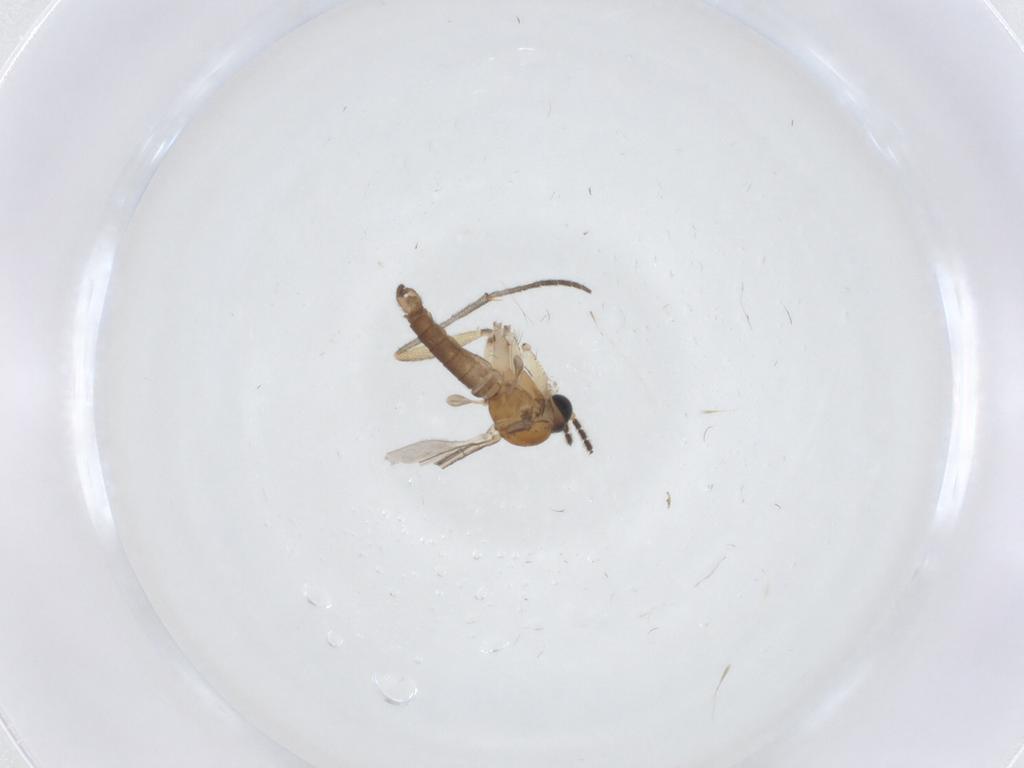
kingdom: Animalia
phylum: Arthropoda
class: Insecta
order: Diptera
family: Sciaridae
